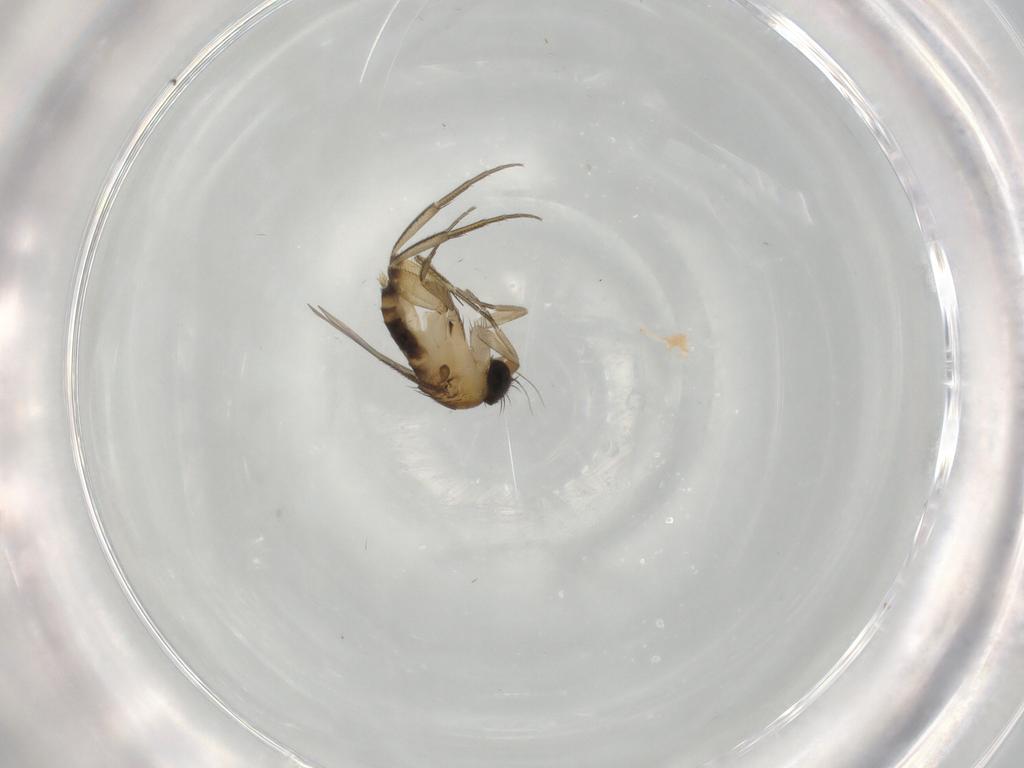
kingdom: Animalia
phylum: Arthropoda
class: Insecta
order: Diptera
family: Phoridae
